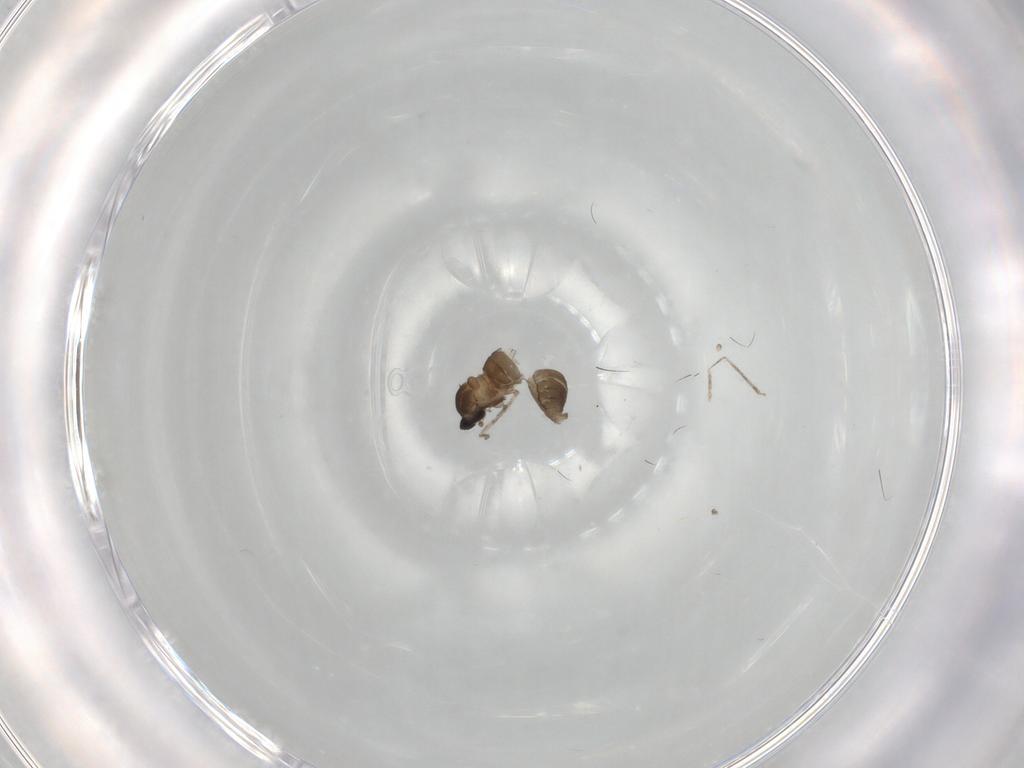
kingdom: Animalia
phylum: Arthropoda
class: Insecta
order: Diptera
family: Cecidomyiidae
